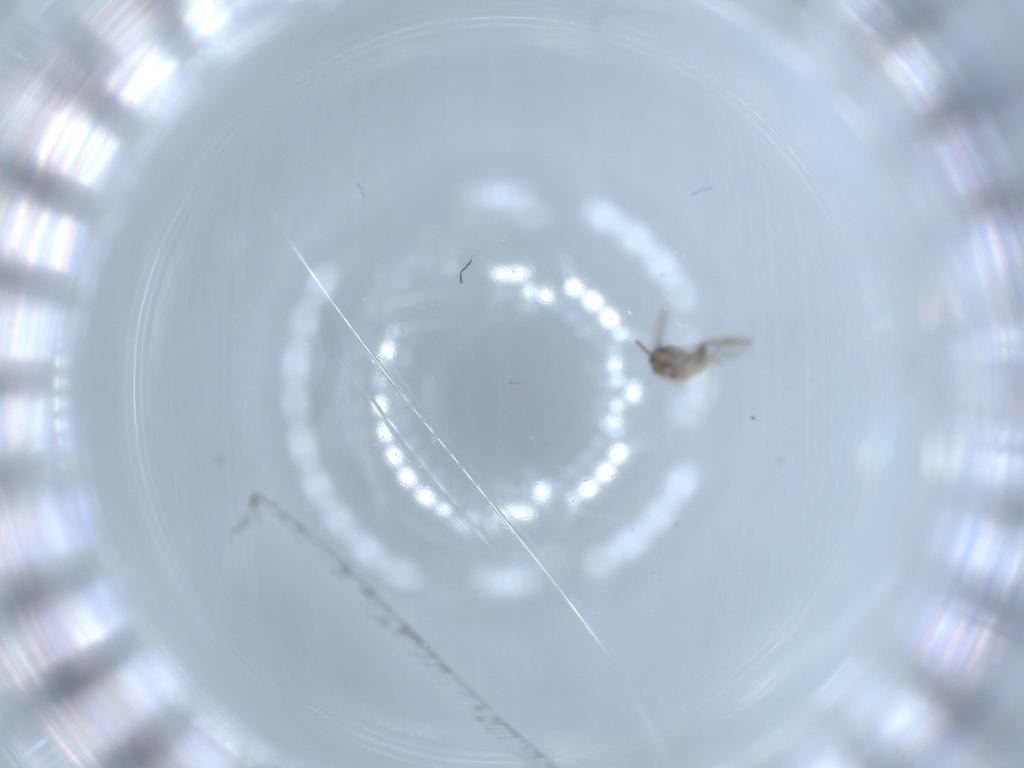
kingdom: Animalia
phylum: Arthropoda
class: Insecta
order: Diptera
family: Cecidomyiidae
